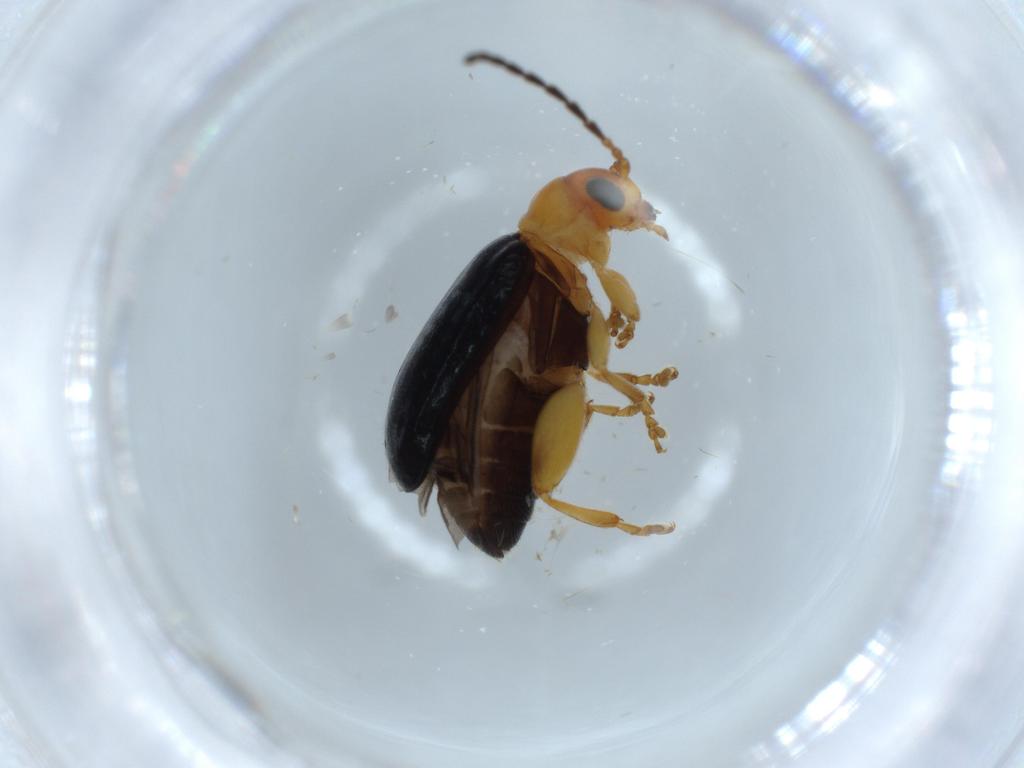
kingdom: Animalia
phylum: Arthropoda
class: Insecta
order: Coleoptera
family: Chrysomelidae
